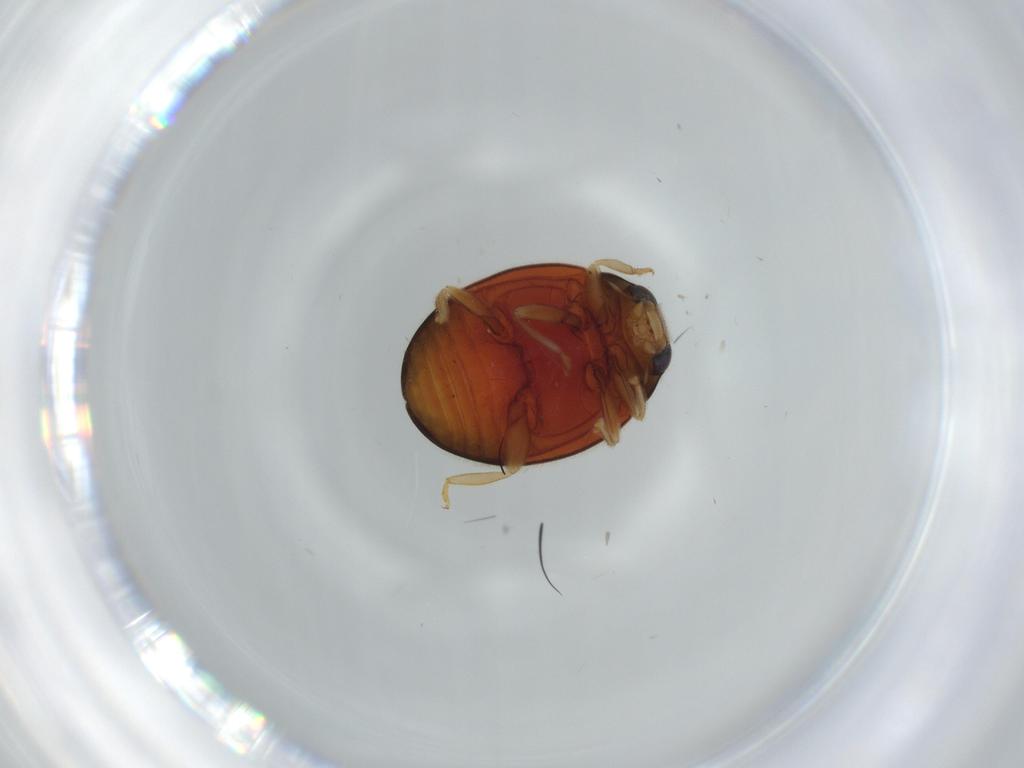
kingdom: Animalia
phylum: Arthropoda
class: Insecta
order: Coleoptera
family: Coccinellidae
